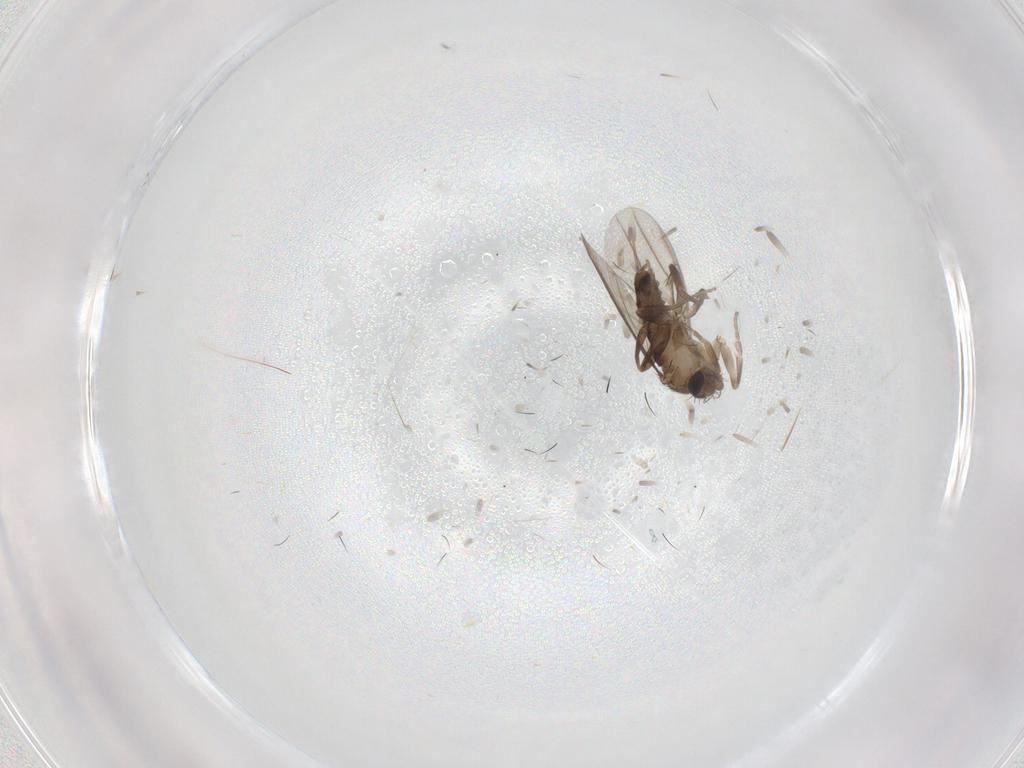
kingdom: Animalia
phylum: Arthropoda
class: Insecta
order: Diptera
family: Phoridae
